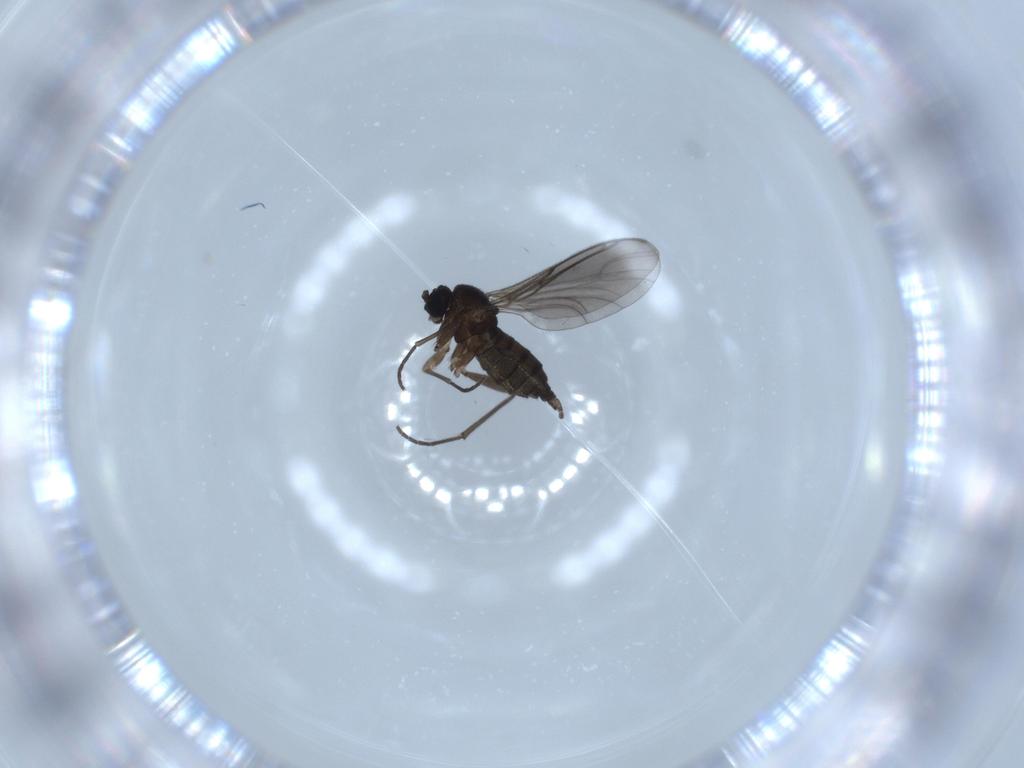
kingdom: Animalia
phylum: Arthropoda
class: Insecta
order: Diptera
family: Sciaridae
